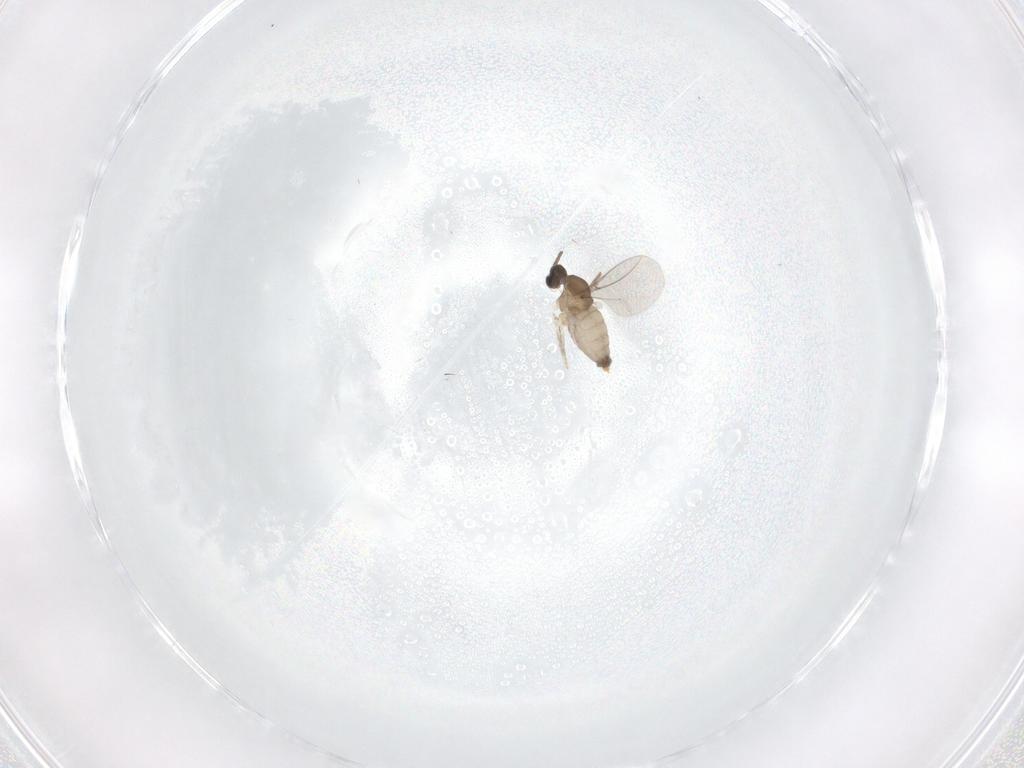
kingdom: Animalia
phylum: Arthropoda
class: Insecta
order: Diptera
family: Cecidomyiidae
